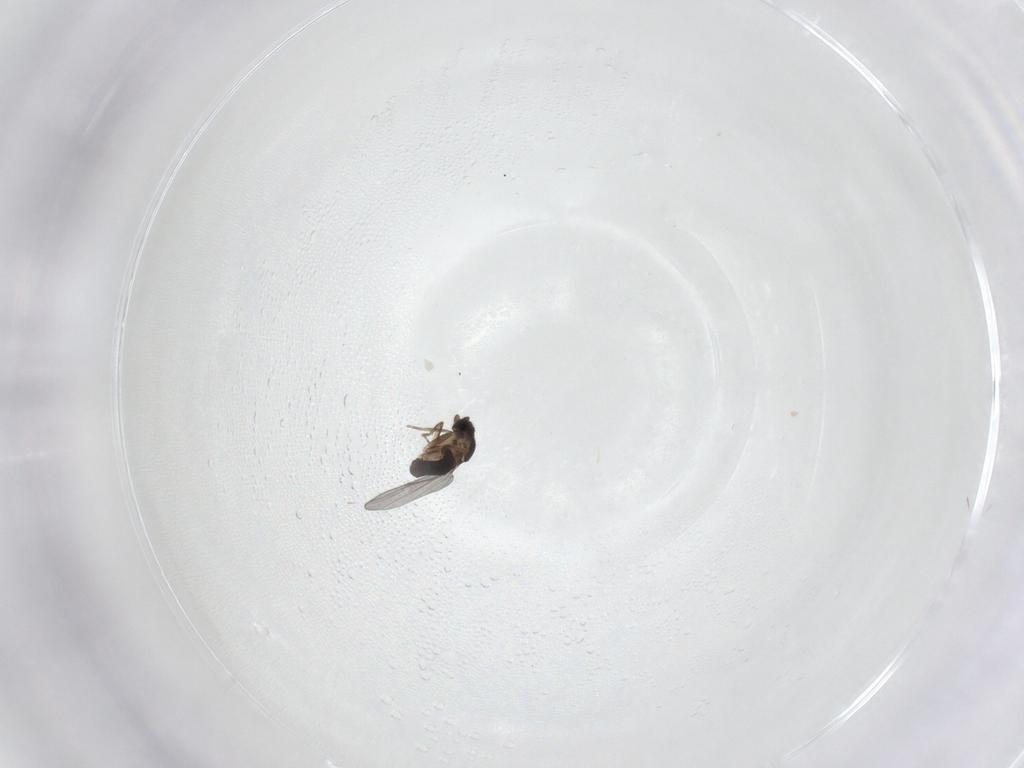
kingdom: Animalia
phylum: Arthropoda
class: Insecta
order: Diptera
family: Phoridae
